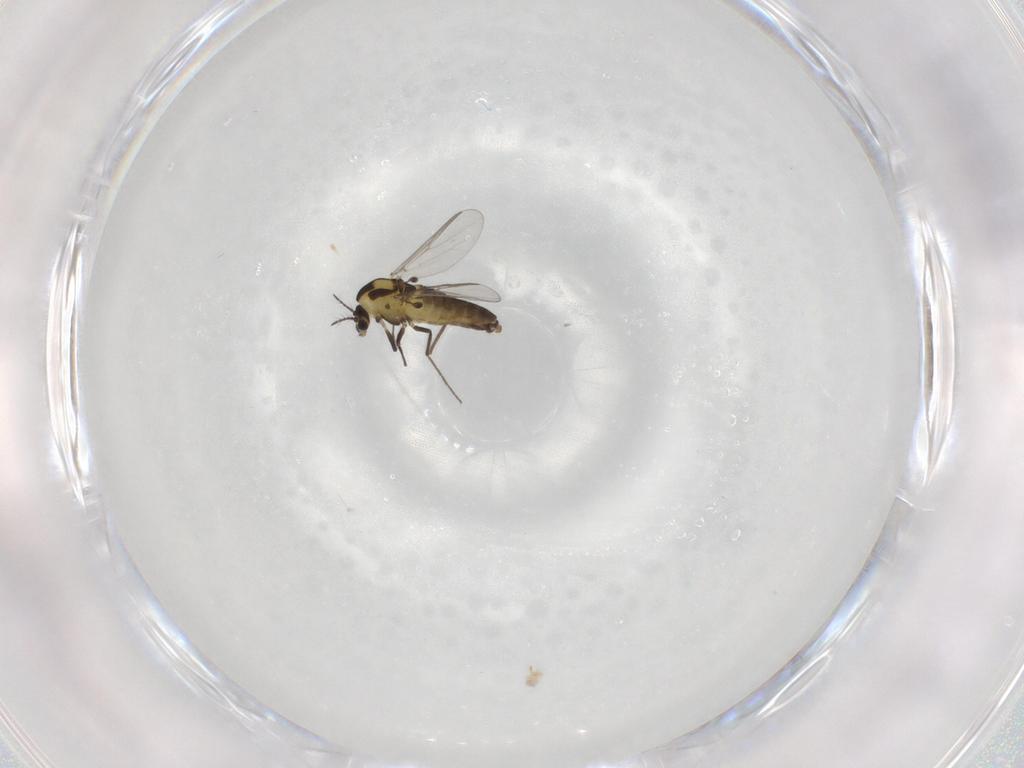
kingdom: Animalia
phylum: Arthropoda
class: Insecta
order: Diptera
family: Chironomidae
